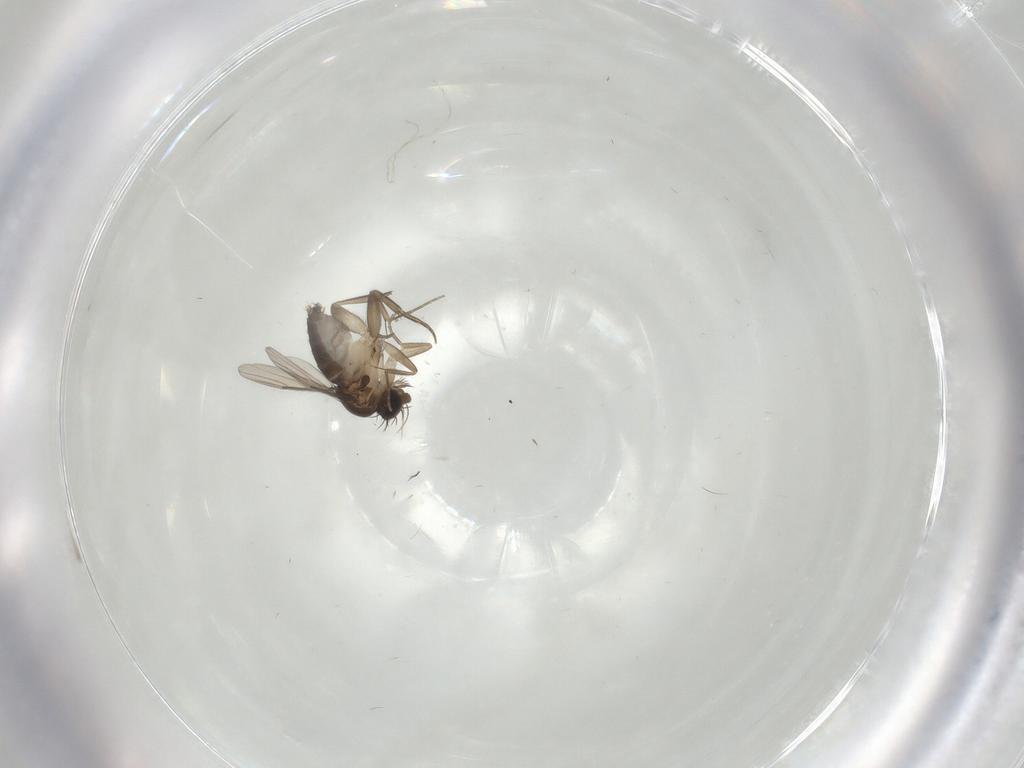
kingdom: Animalia
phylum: Arthropoda
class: Insecta
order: Diptera
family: Phoridae
